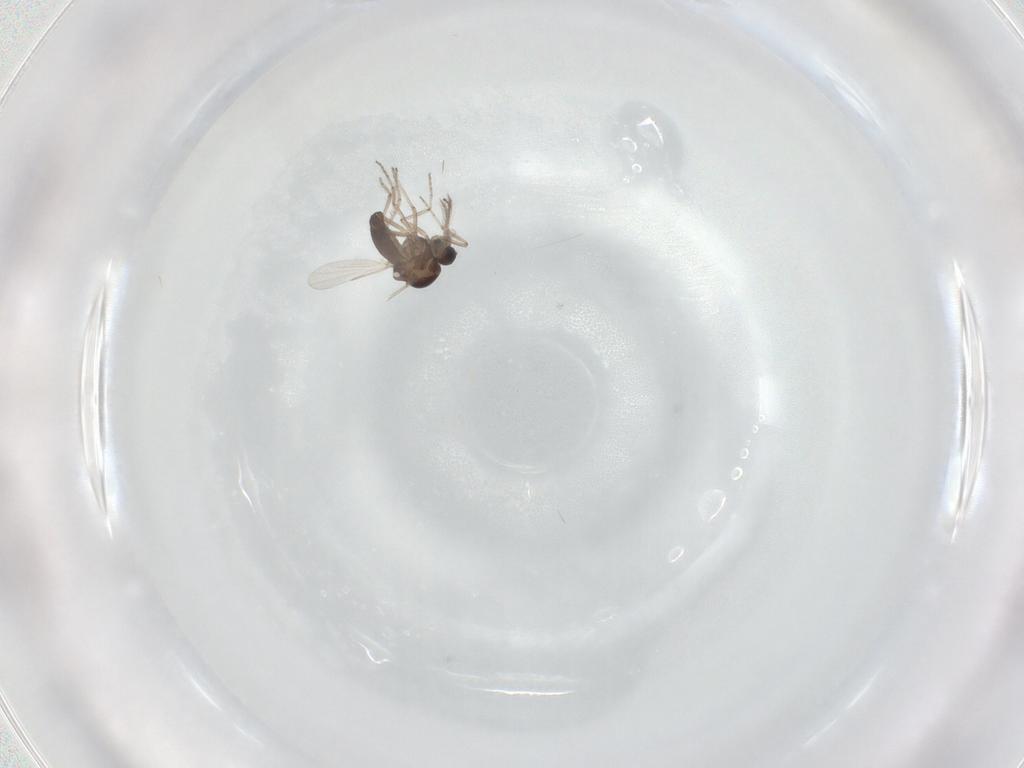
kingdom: Animalia
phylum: Arthropoda
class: Insecta
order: Diptera
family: Ceratopogonidae
